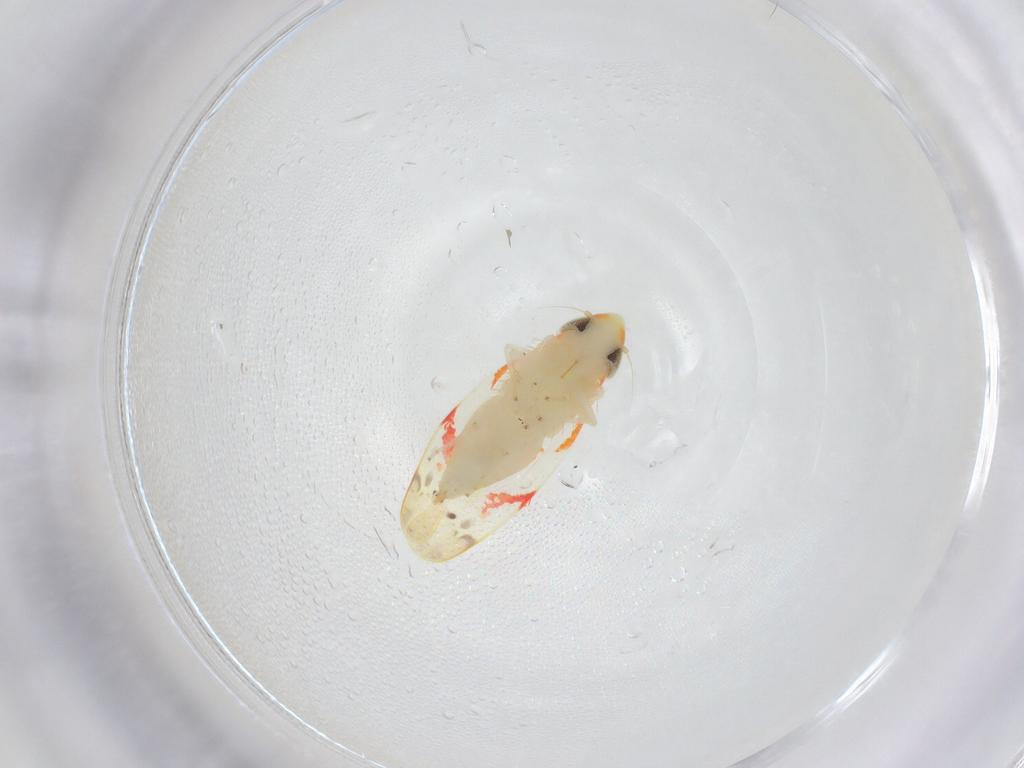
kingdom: Animalia
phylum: Arthropoda
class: Insecta
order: Hemiptera
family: Cicadellidae
